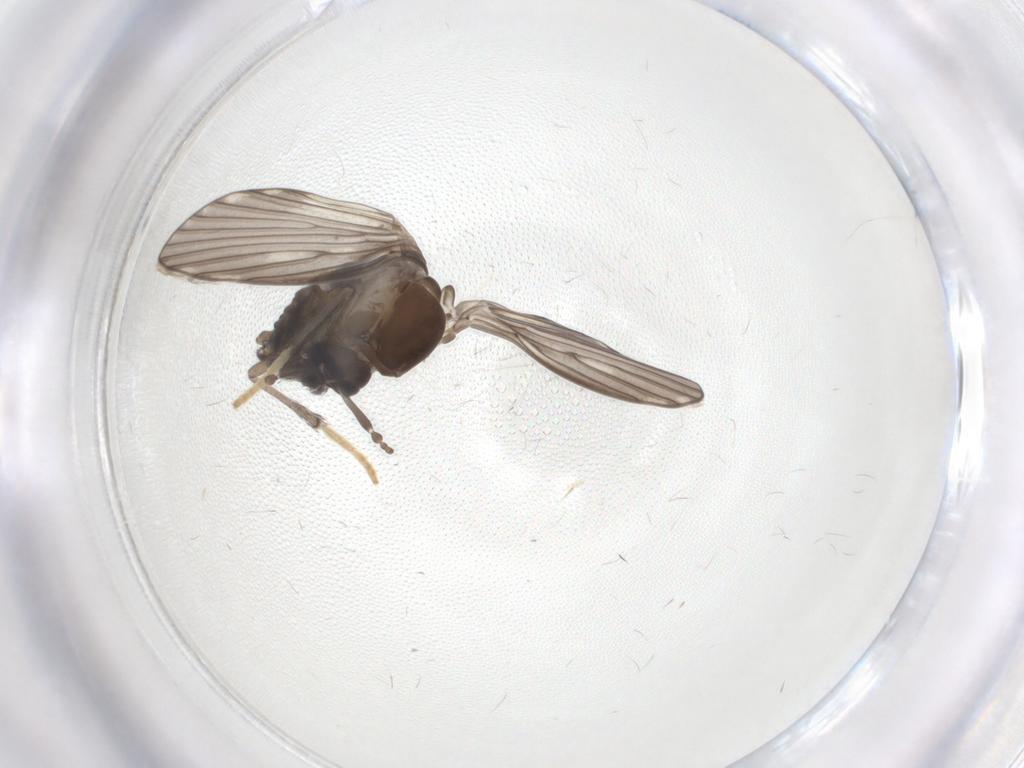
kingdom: Animalia
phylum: Arthropoda
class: Insecta
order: Diptera
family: Psychodidae
